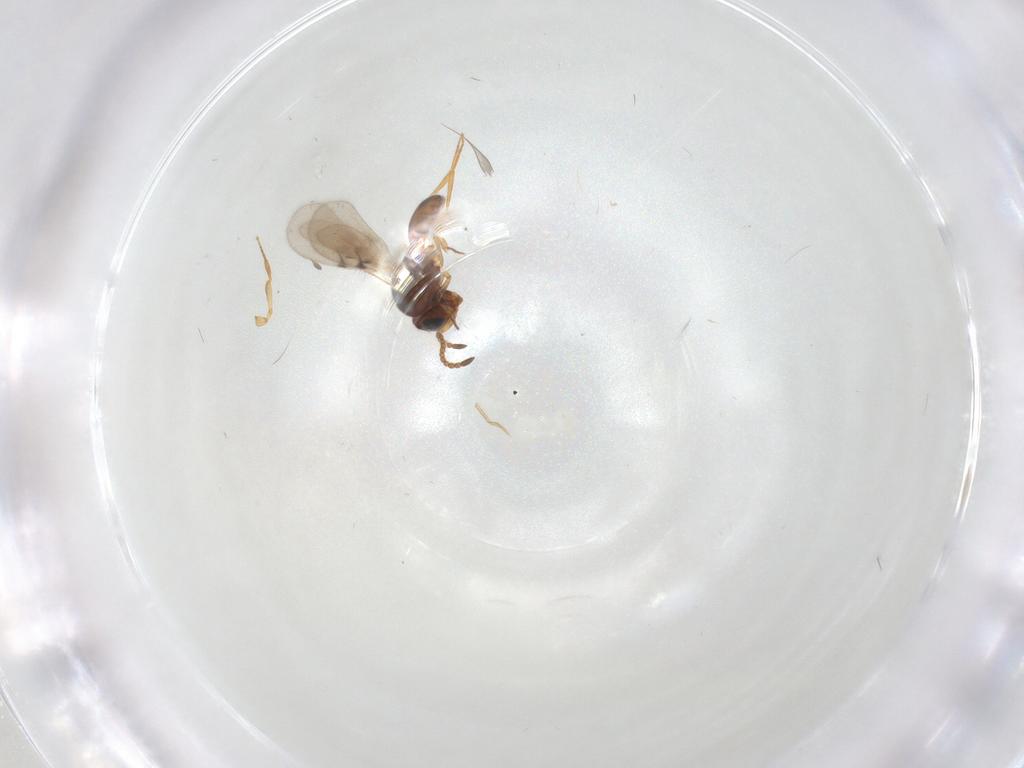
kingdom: Animalia
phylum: Arthropoda
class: Insecta
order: Hymenoptera
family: Scelionidae
